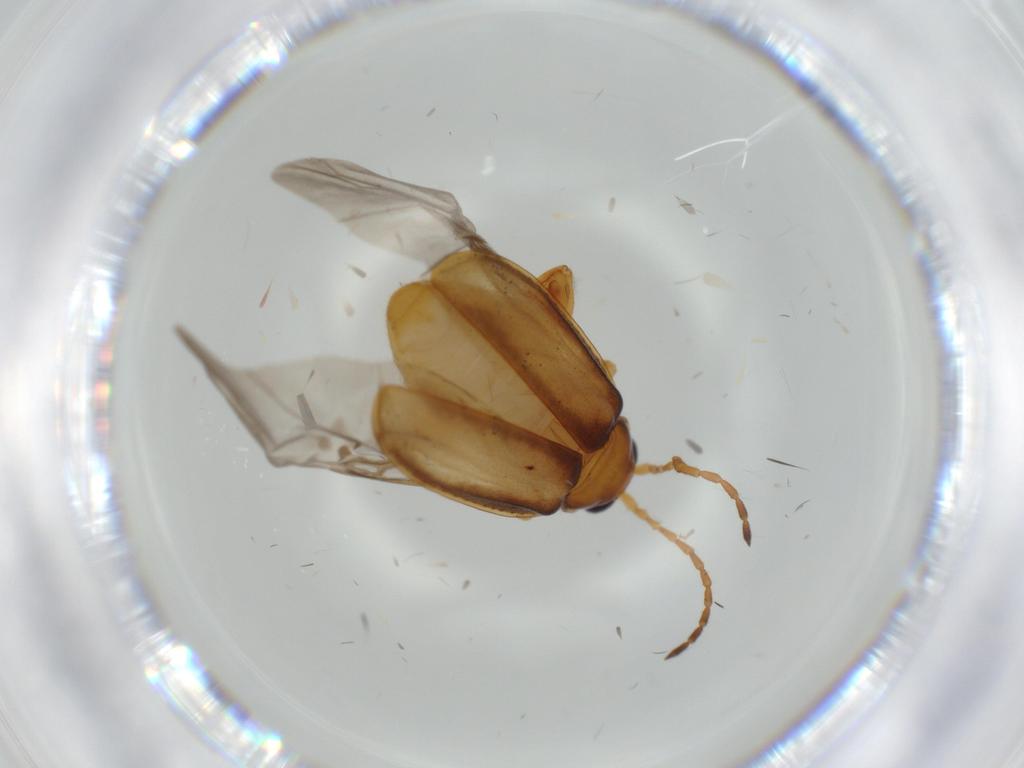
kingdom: Animalia
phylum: Arthropoda
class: Insecta
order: Coleoptera
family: Chrysomelidae
